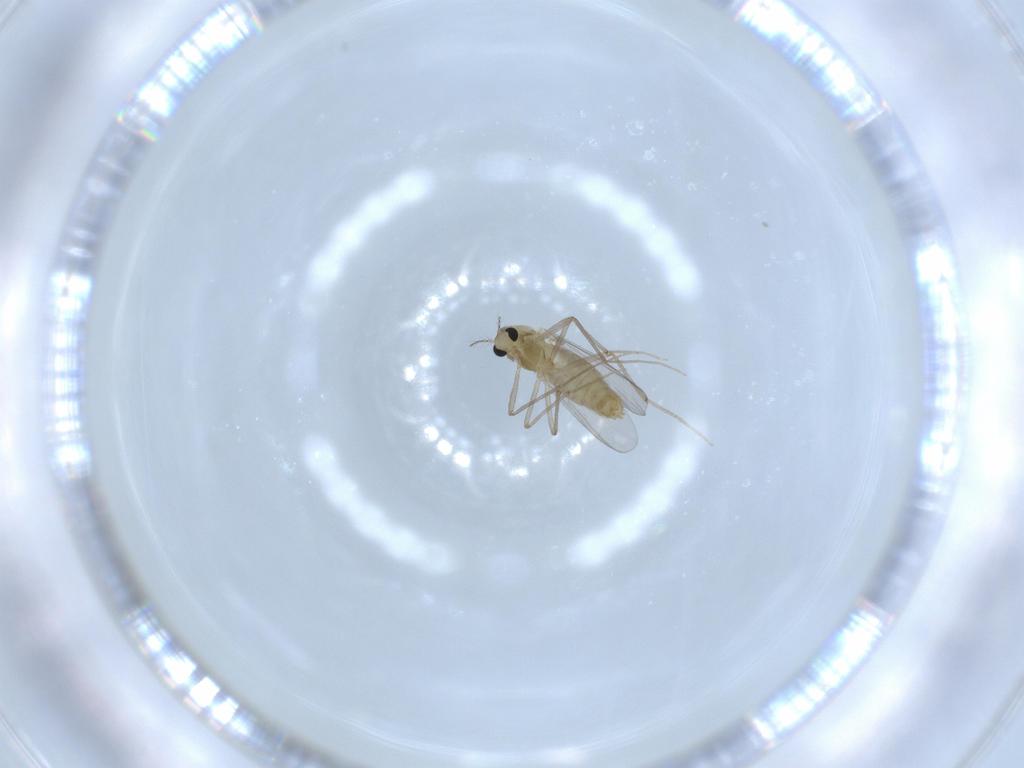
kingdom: Animalia
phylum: Arthropoda
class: Insecta
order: Diptera
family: Chironomidae
